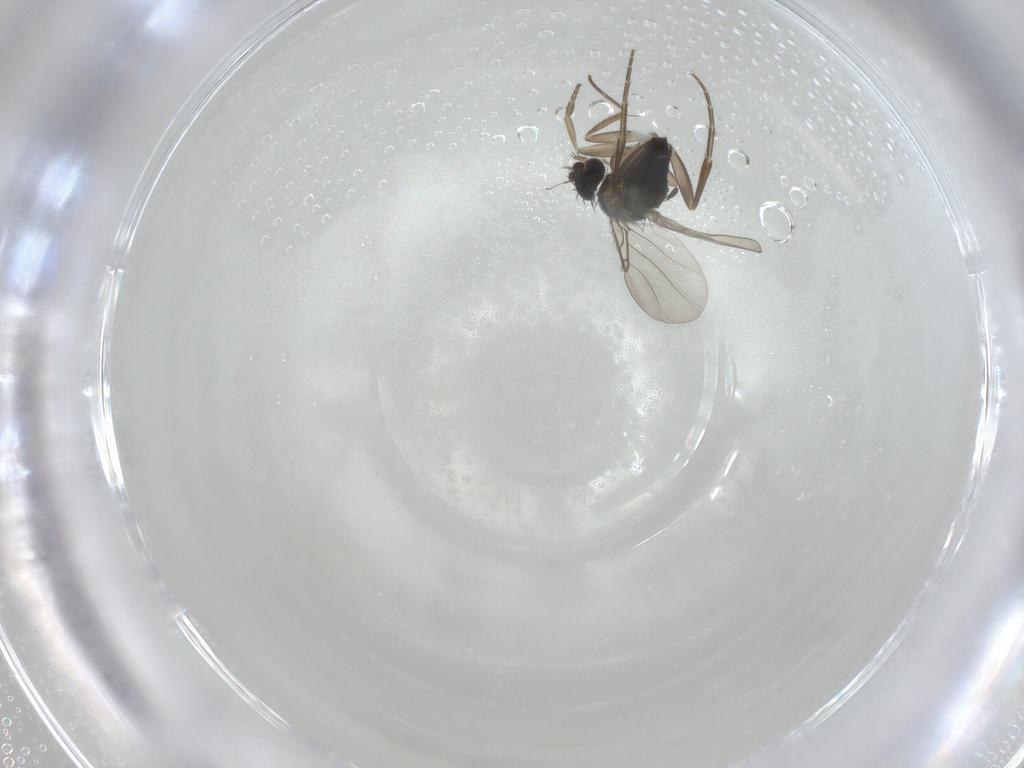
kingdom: Animalia
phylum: Arthropoda
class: Insecta
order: Diptera
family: Phoridae
